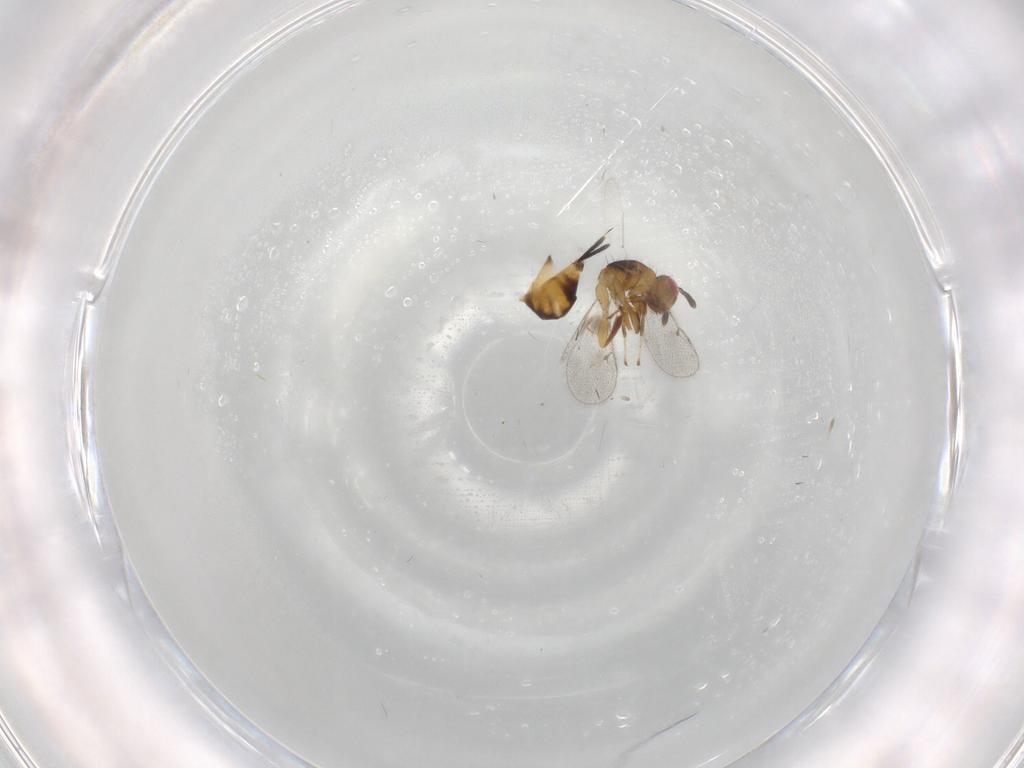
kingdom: Animalia
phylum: Arthropoda
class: Insecta
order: Hymenoptera
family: Torymidae
